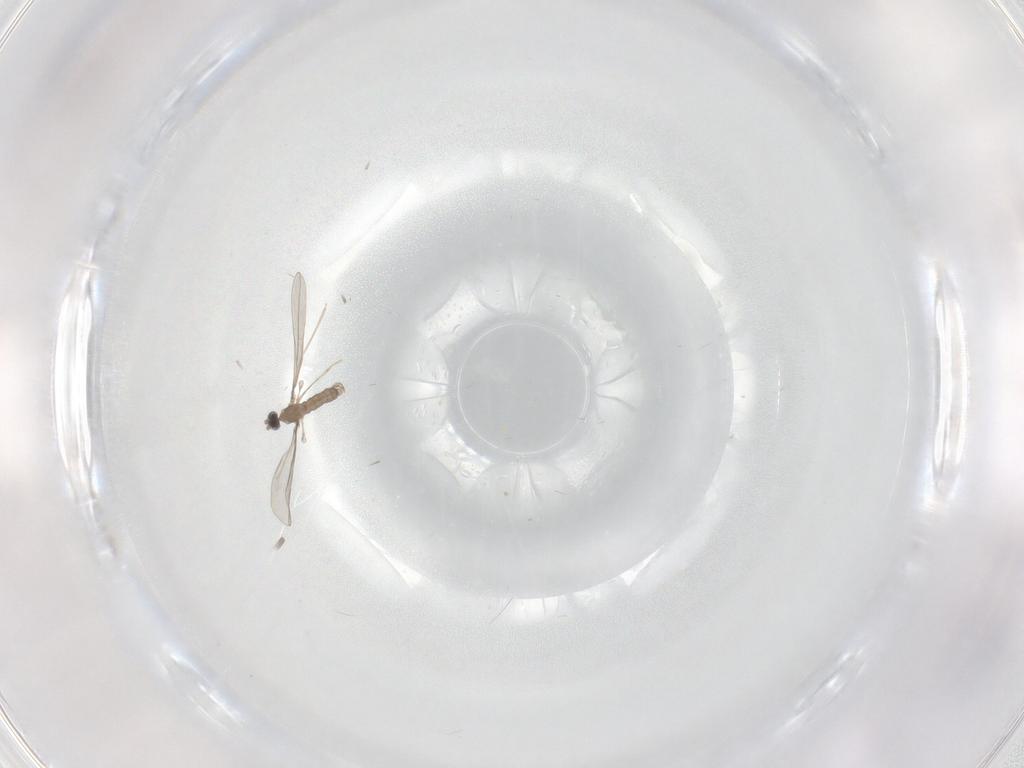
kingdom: Animalia
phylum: Arthropoda
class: Insecta
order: Diptera
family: Cecidomyiidae
